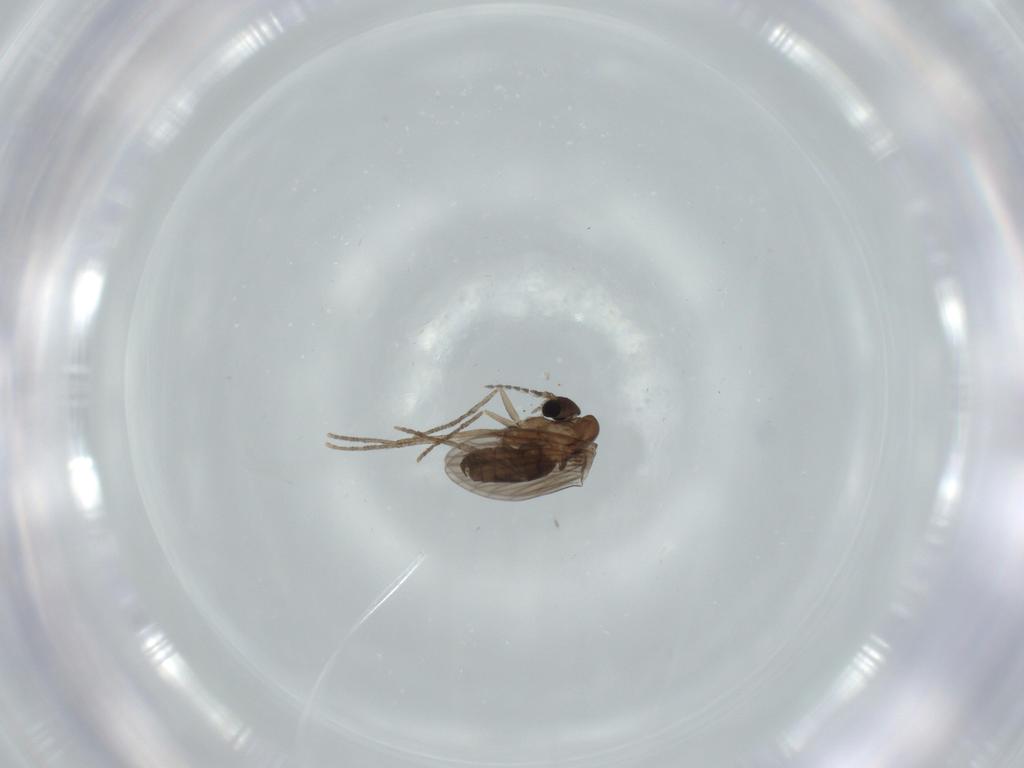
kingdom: Animalia
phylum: Arthropoda
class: Insecta
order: Diptera
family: Psychodidae
